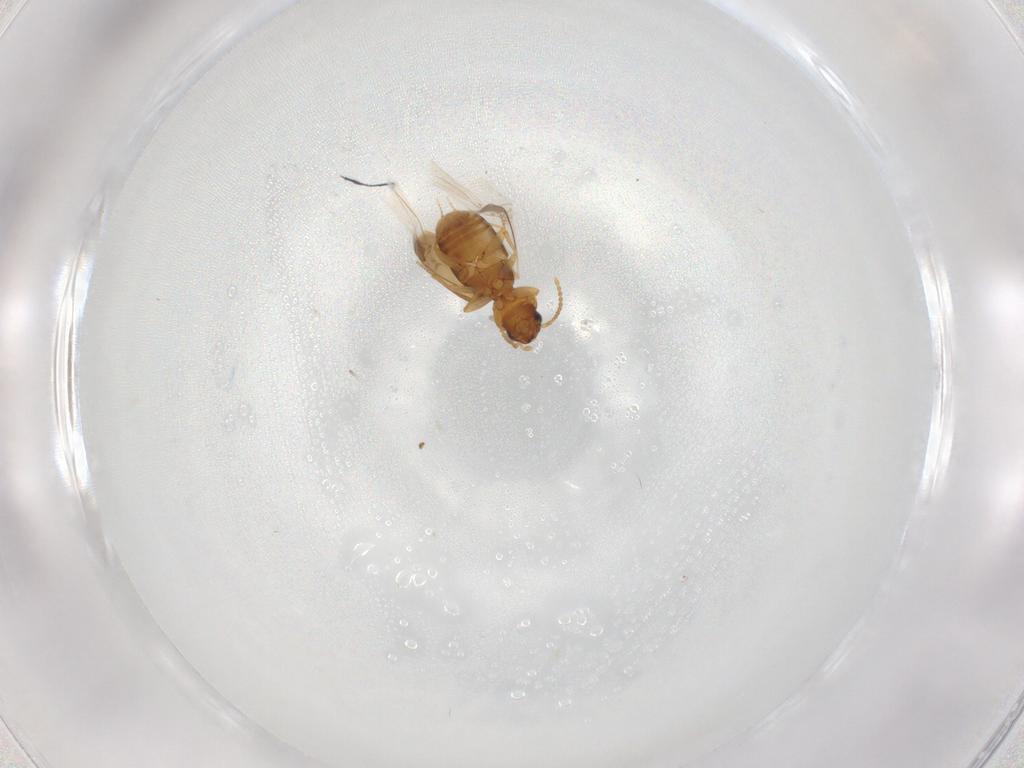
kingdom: Animalia
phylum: Arthropoda
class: Insecta
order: Coleoptera
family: Carabidae
